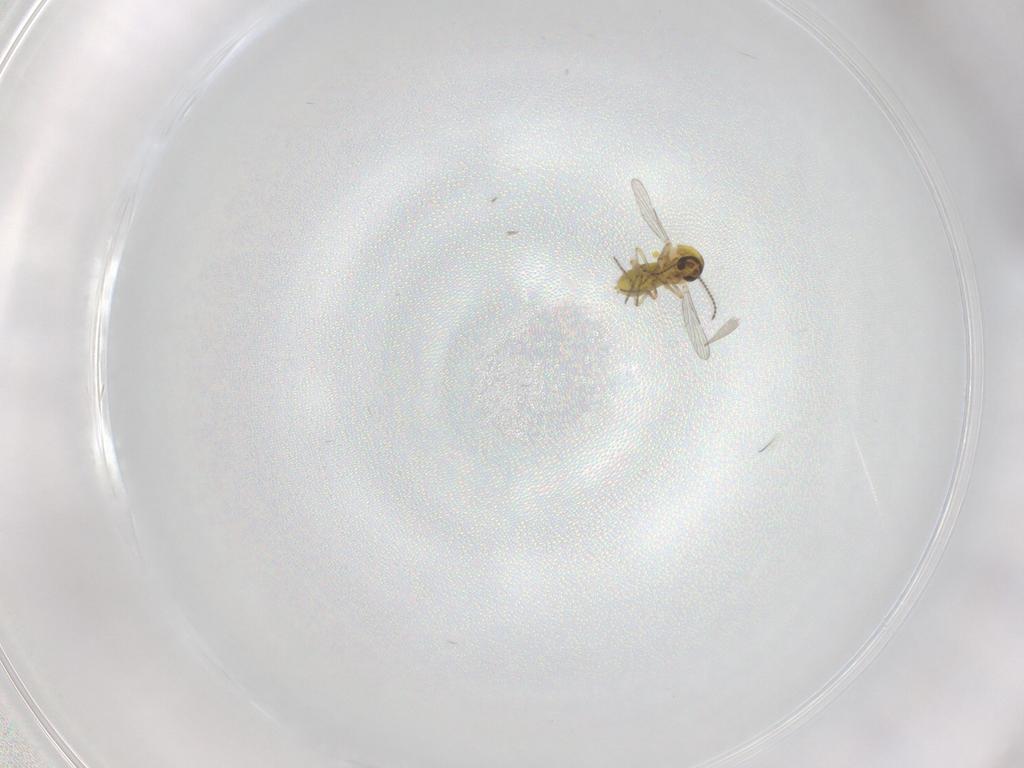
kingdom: Animalia
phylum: Arthropoda
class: Insecta
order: Diptera
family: Ceratopogonidae
